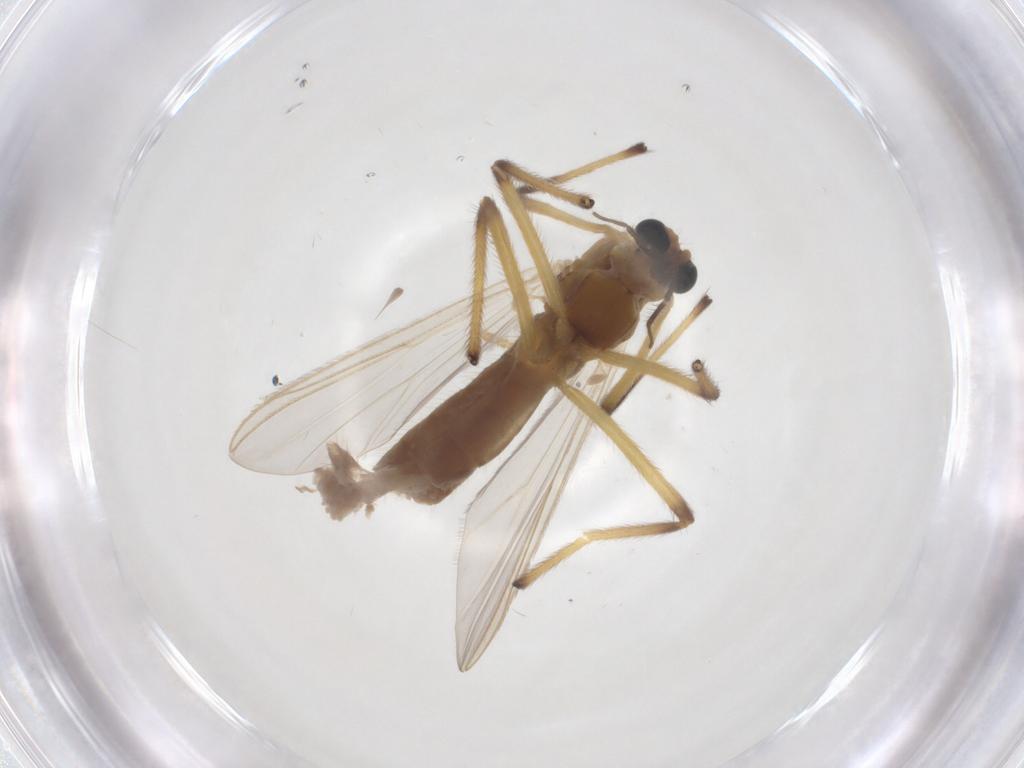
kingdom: Animalia
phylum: Arthropoda
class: Insecta
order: Diptera
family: Chironomidae
